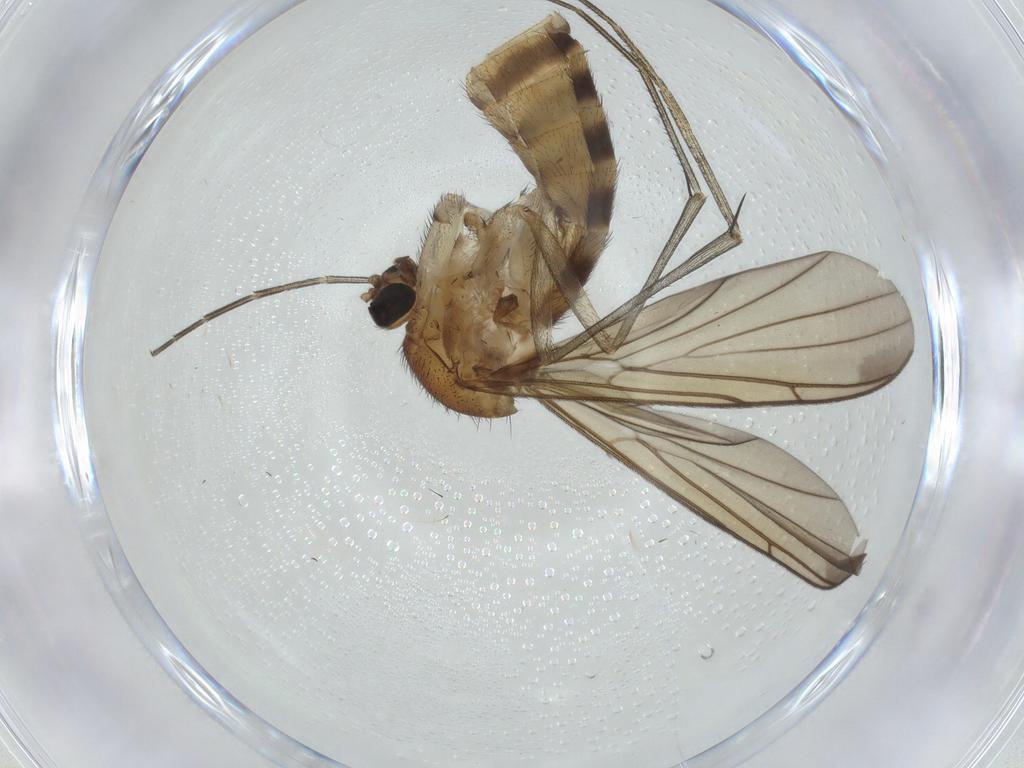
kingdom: Animalia
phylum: Arthropoda
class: Insecta
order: Diptera
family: Keroplatidae
